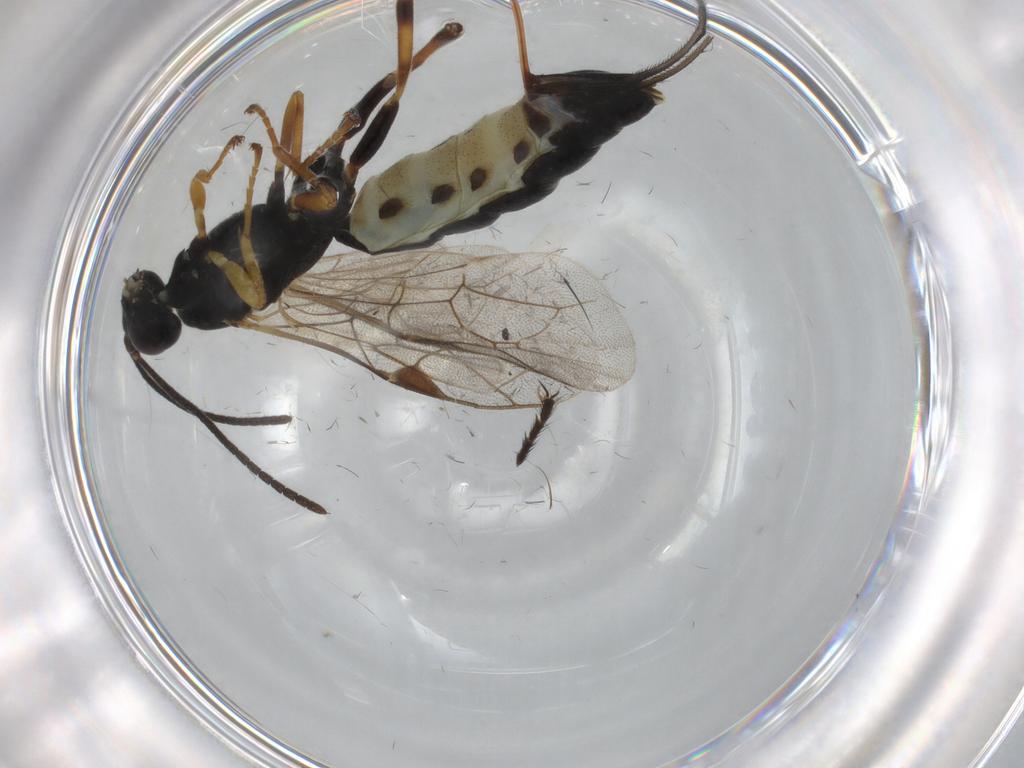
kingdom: Animalia
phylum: Arthropoda
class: Insecta
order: Hymenoptera
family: Ichneumonidae
